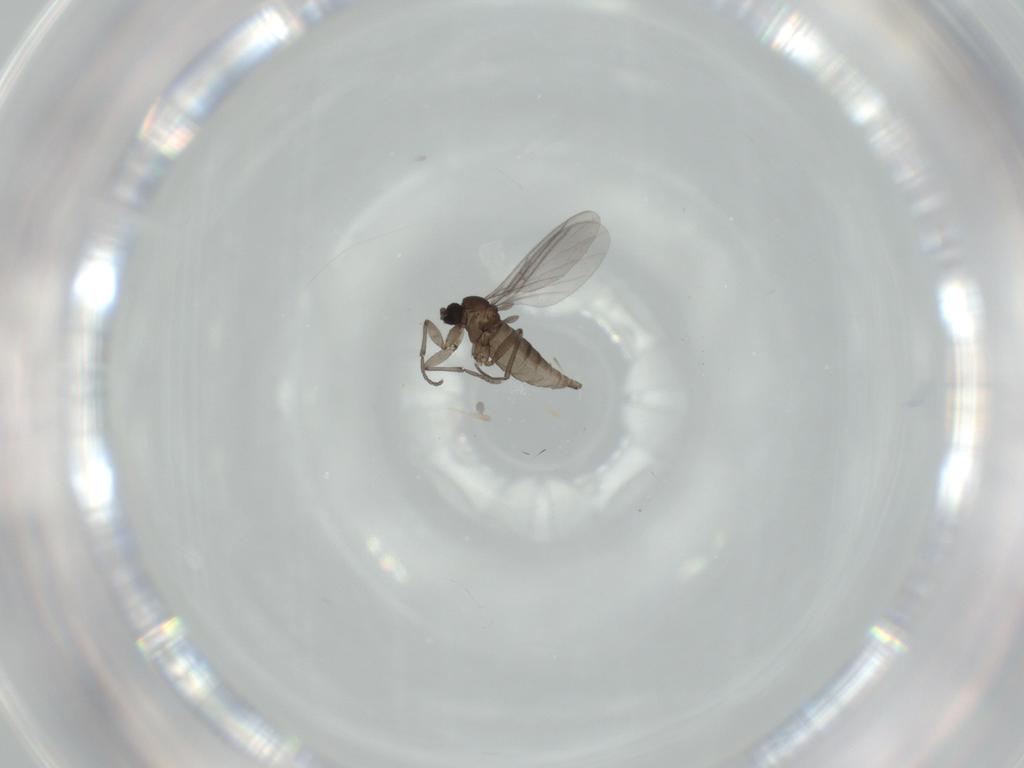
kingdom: Animalia
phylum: Arthropoda
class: Insecta
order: Diptera
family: Sciaridae
